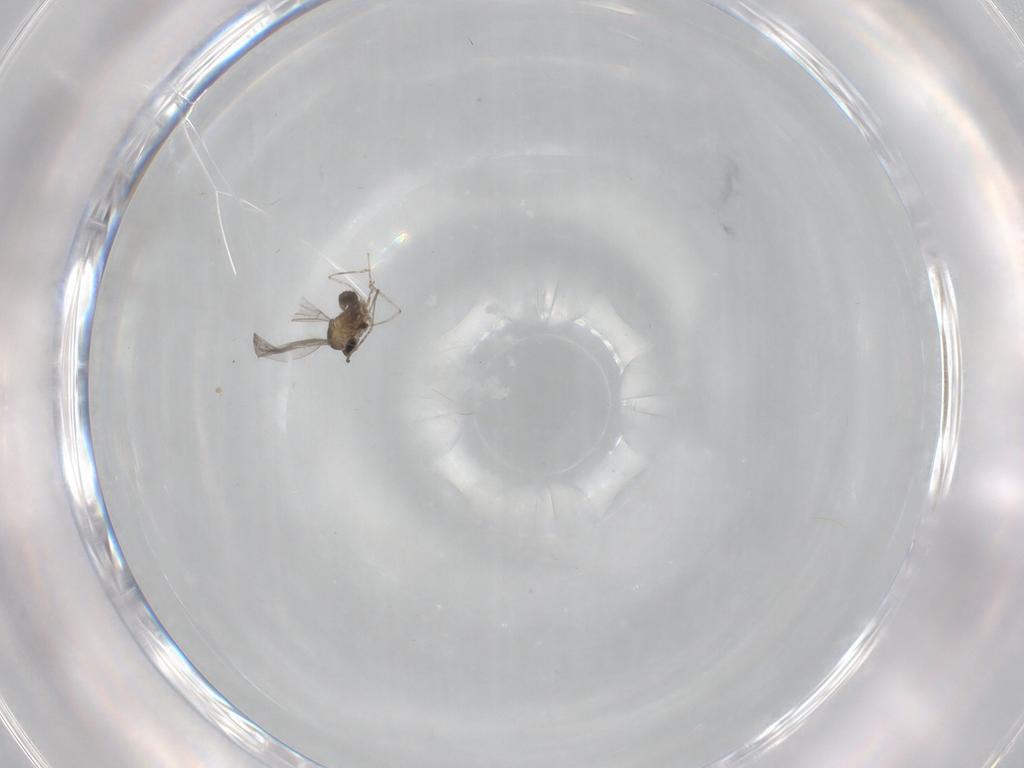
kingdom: Animalia
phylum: Arthropoda
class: Insecta
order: Diptera
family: Cecidomyiidae
